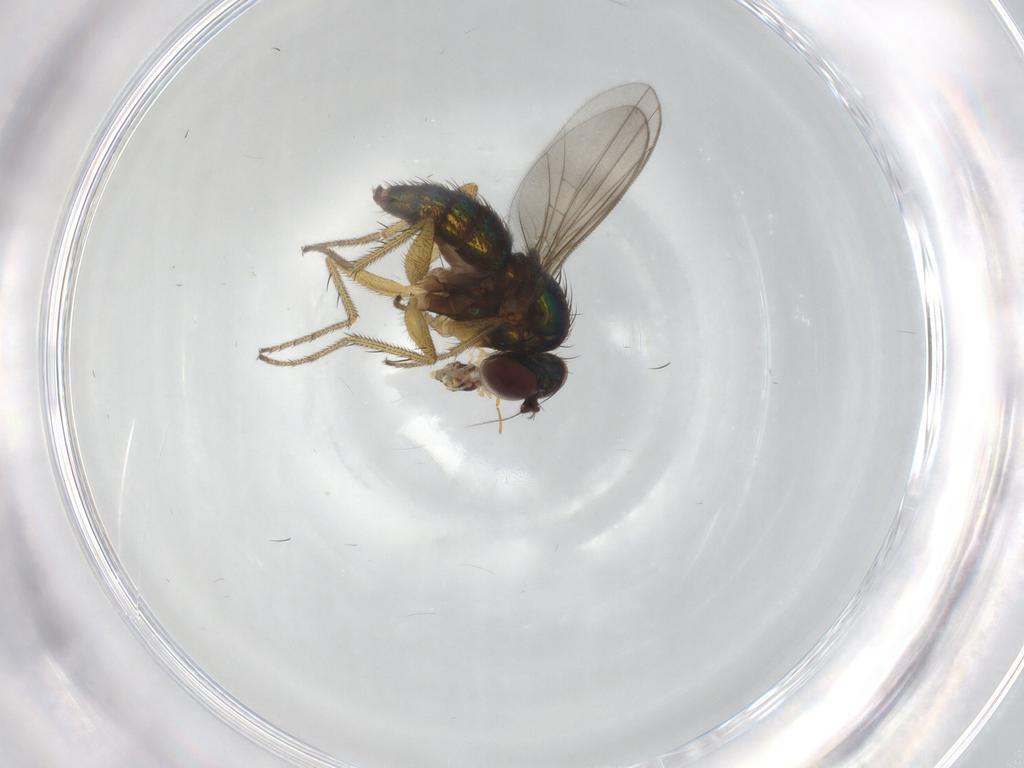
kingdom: Animalia
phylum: Arthropoda
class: Insecta
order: Diptera
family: Dolichopodidae
